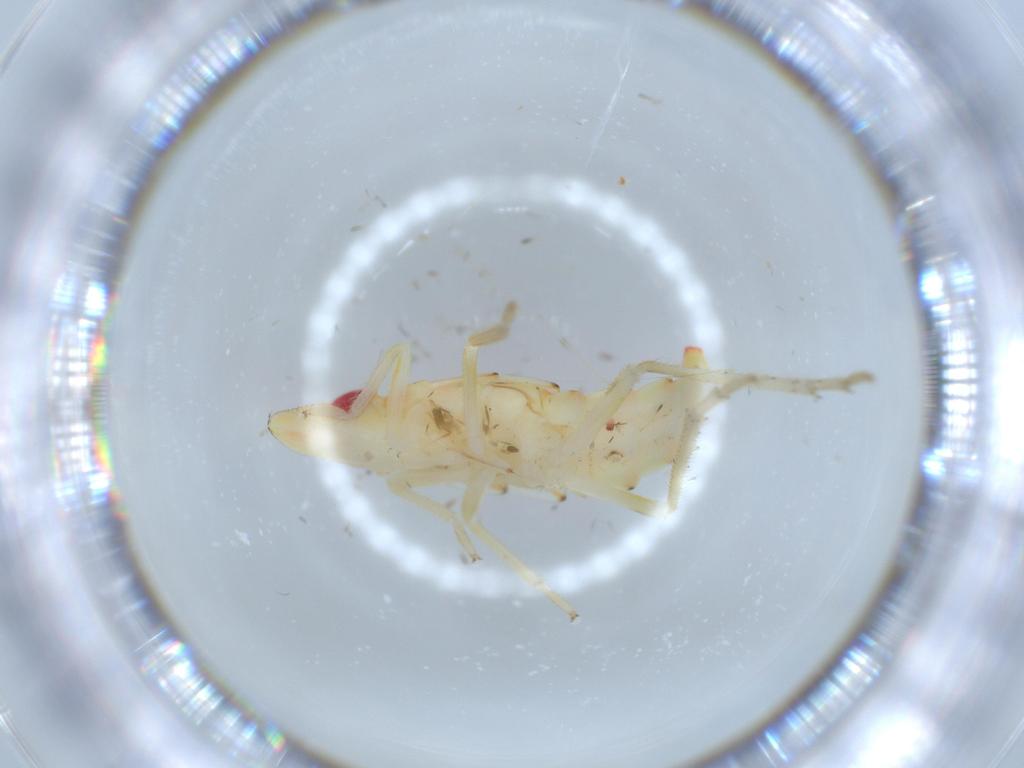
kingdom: Animalia
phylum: Arthropoda
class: Insecta
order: Hemiptera
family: Tropiduchidae
